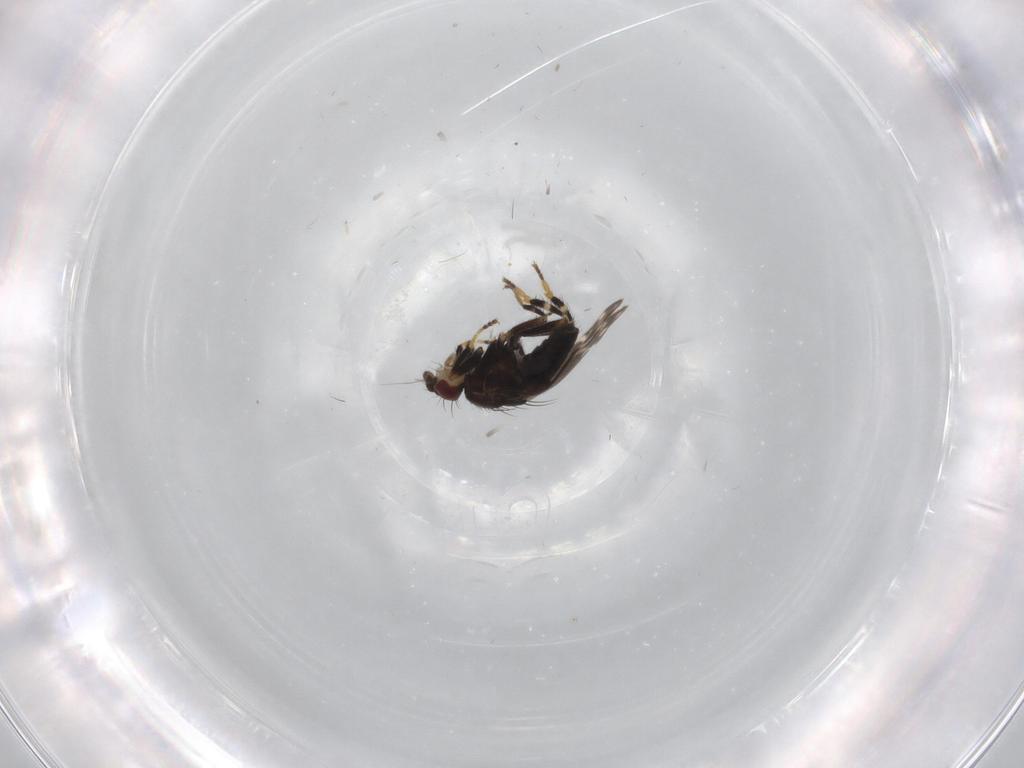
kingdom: Animalia
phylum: Arthropoda
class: Insecta
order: Diptera
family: Sphaeroceridae
